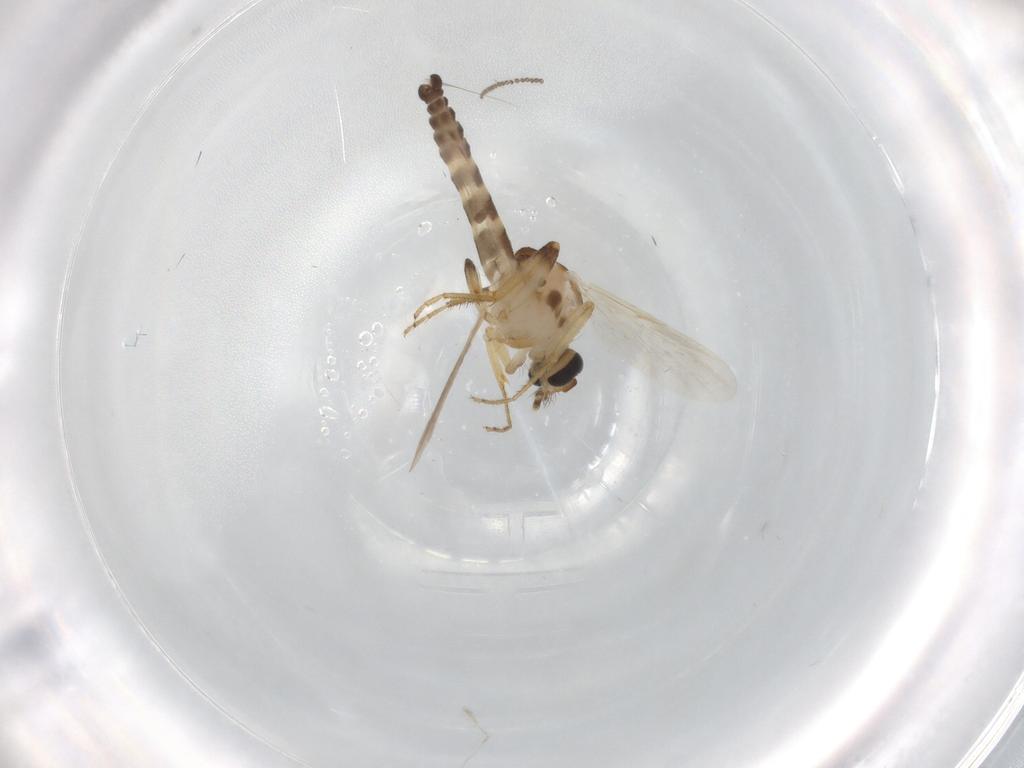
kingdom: Animalia
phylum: Arthropoda
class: Insecta
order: Diptera
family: Ceratopogonidae
